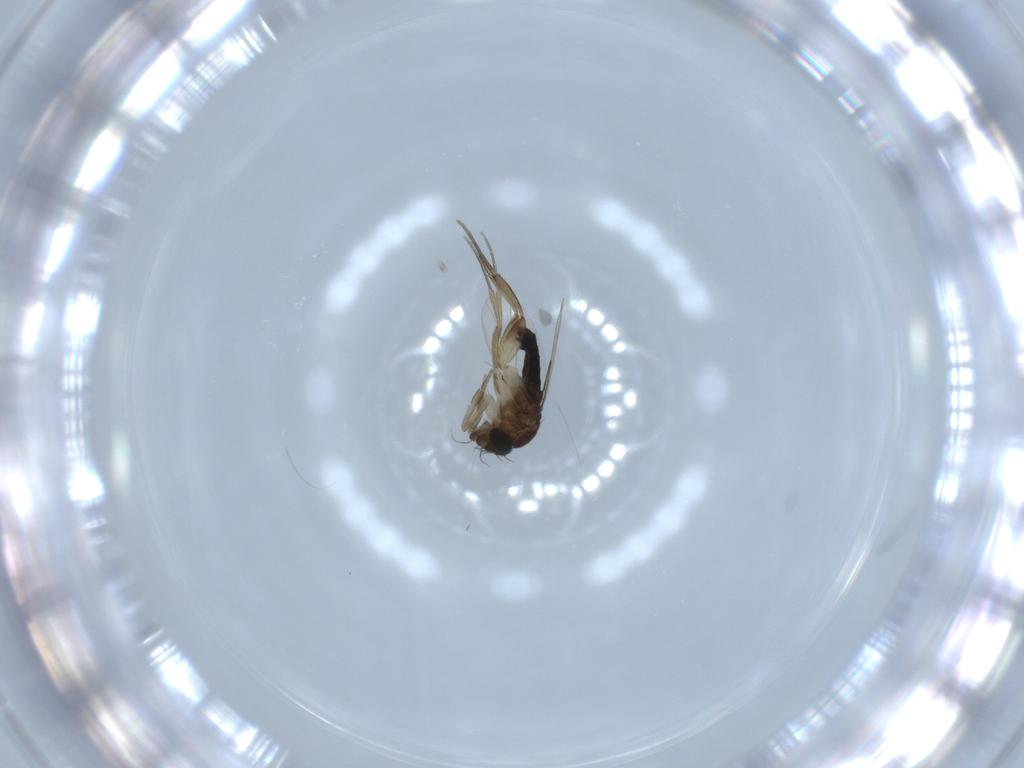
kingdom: Animalia
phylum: Arthropoda
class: Insecta
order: Diptera
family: Phoridae
